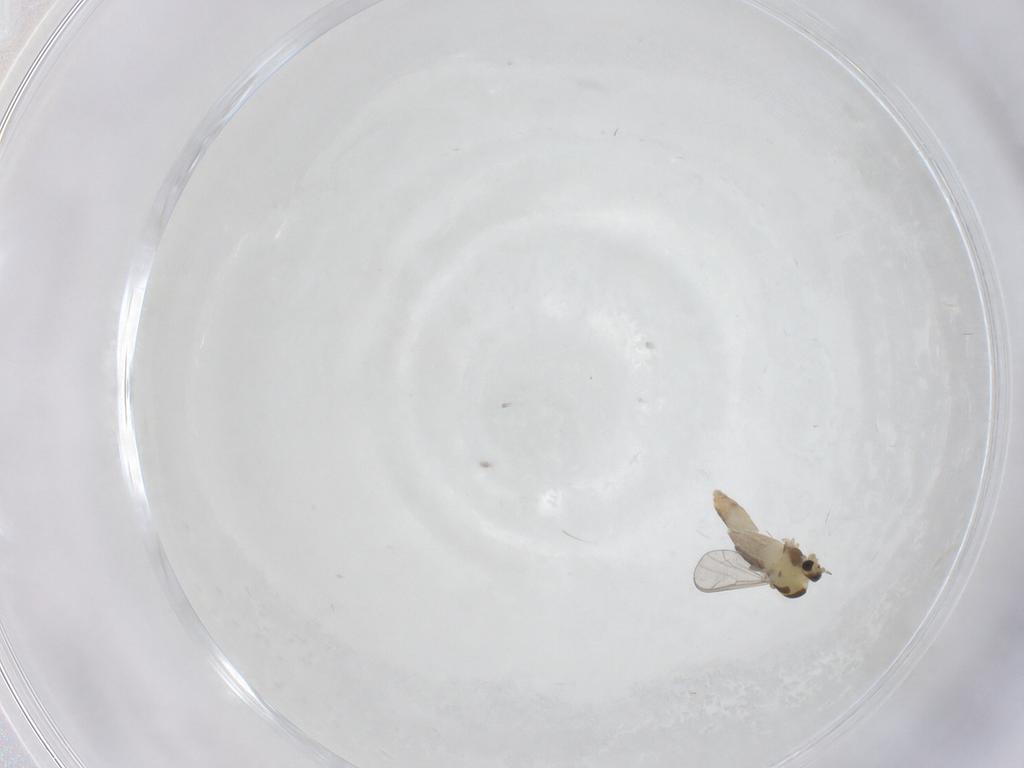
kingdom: Animalia
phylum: Arthropoda
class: Insecta
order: Diptera
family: Chironomidae
